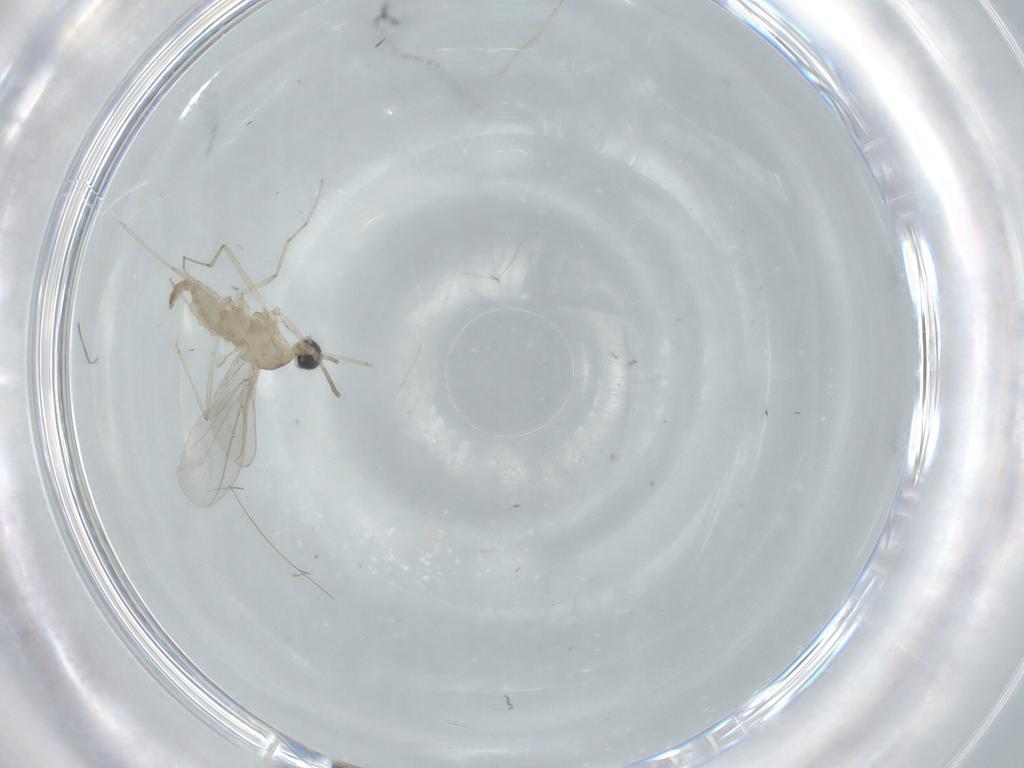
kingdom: Animalia
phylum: Arthropoda
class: Insecta
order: Diptera
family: Cecidomyiidae
